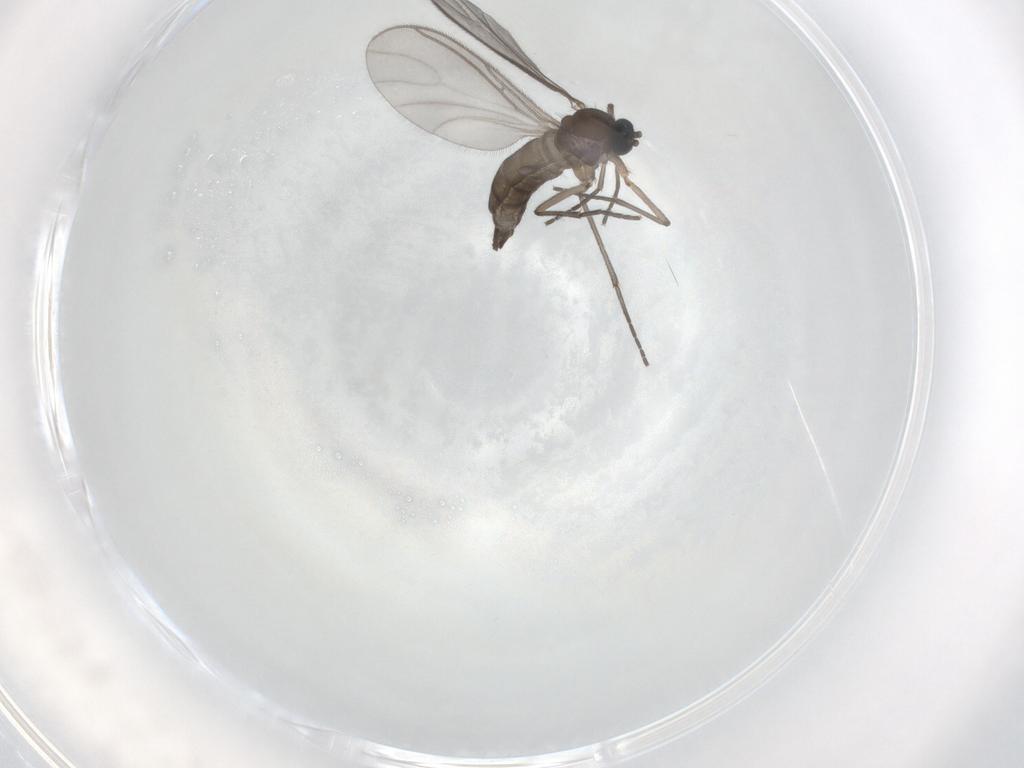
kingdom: Animalia
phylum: Arthropoda
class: Insecta
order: Diptera
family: Sciaridae
